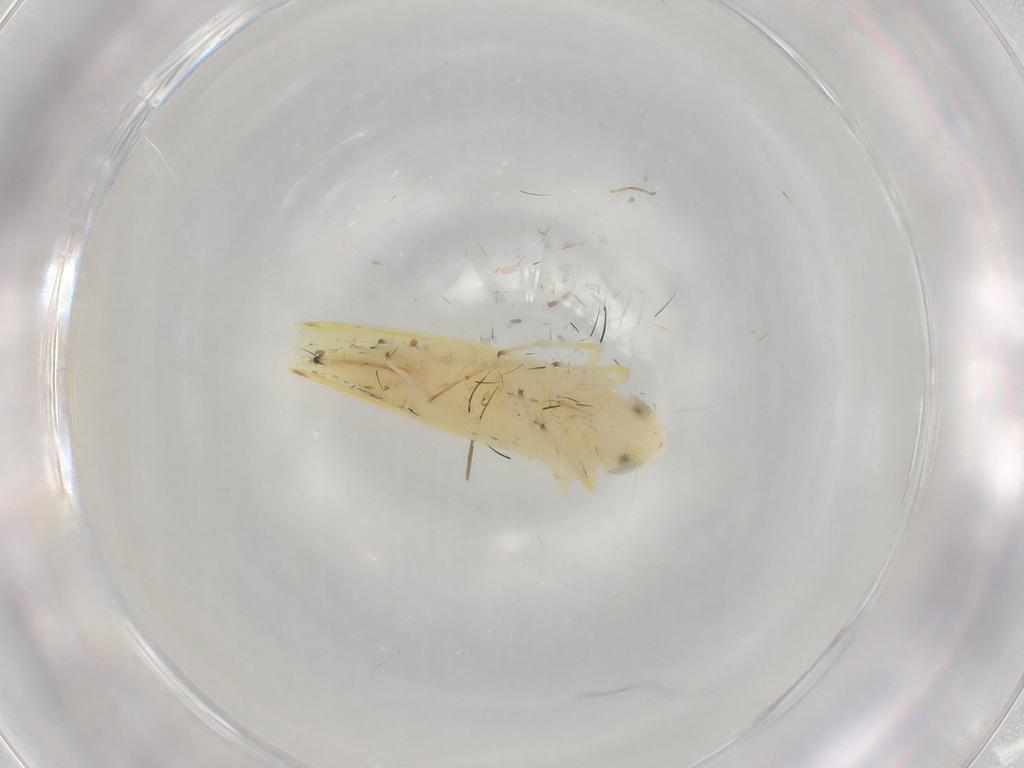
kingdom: Animalia
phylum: Arthropoda
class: Insecta
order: Hemiptera
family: Cicadellidae
